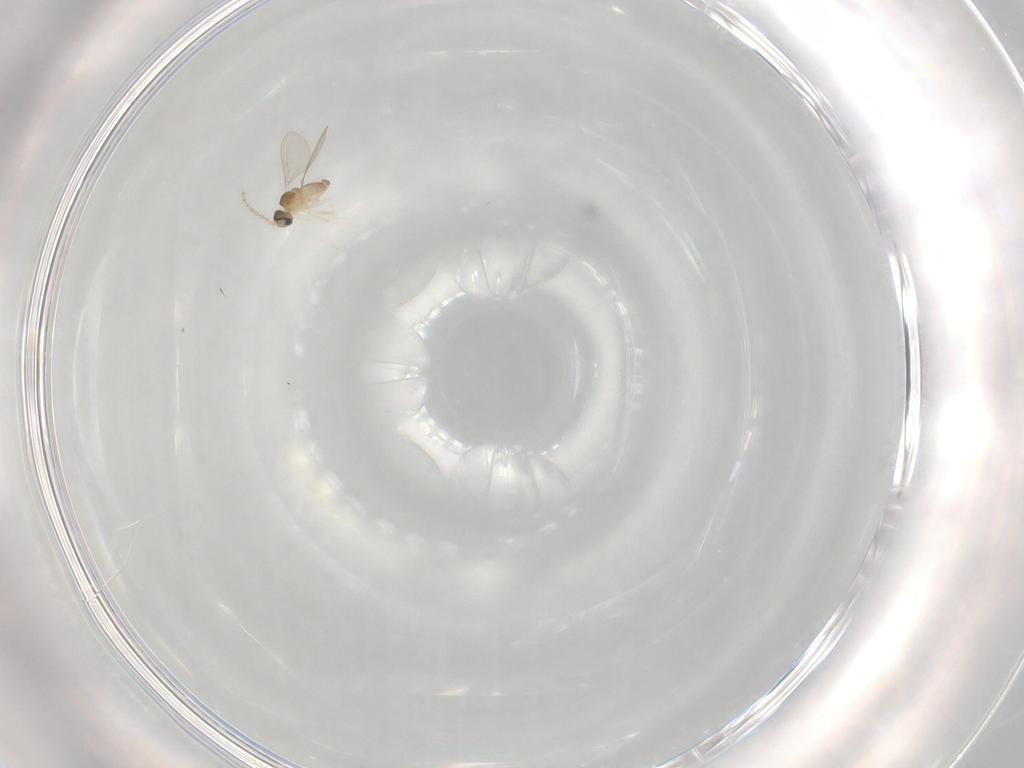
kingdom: Animalia
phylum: Arthropoda
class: Insecta
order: Diptera
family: Cecidomyiidae
